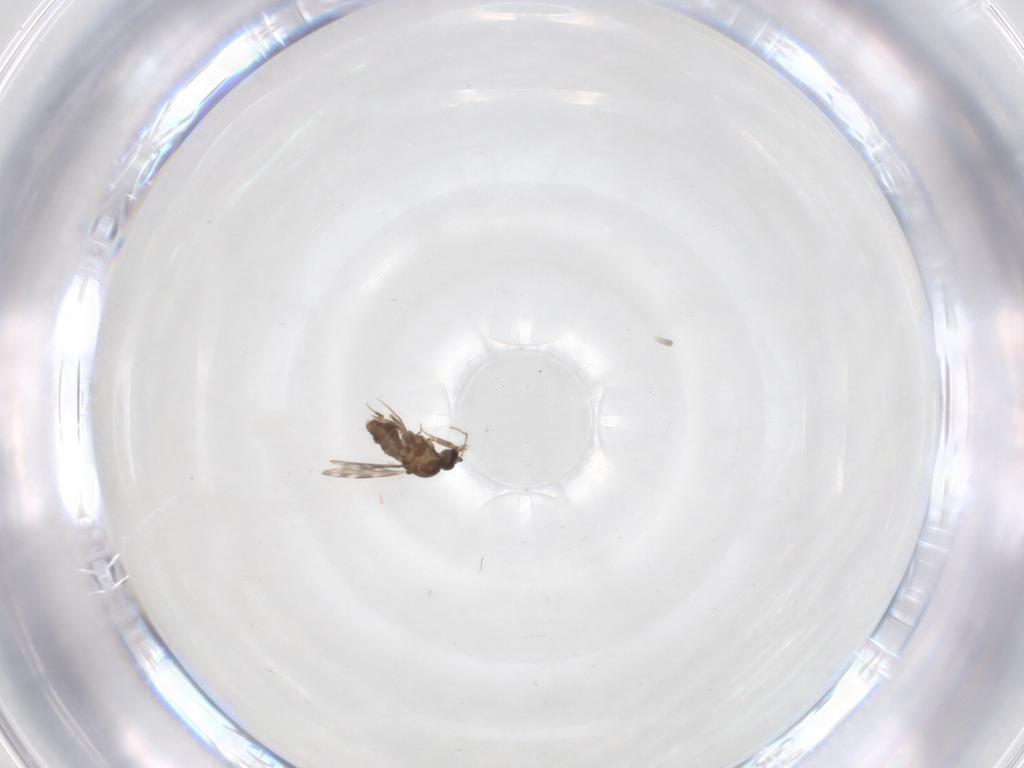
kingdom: Animalia
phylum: Arthropoda
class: Insecta
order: Diptera
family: Ceratopogonidae
